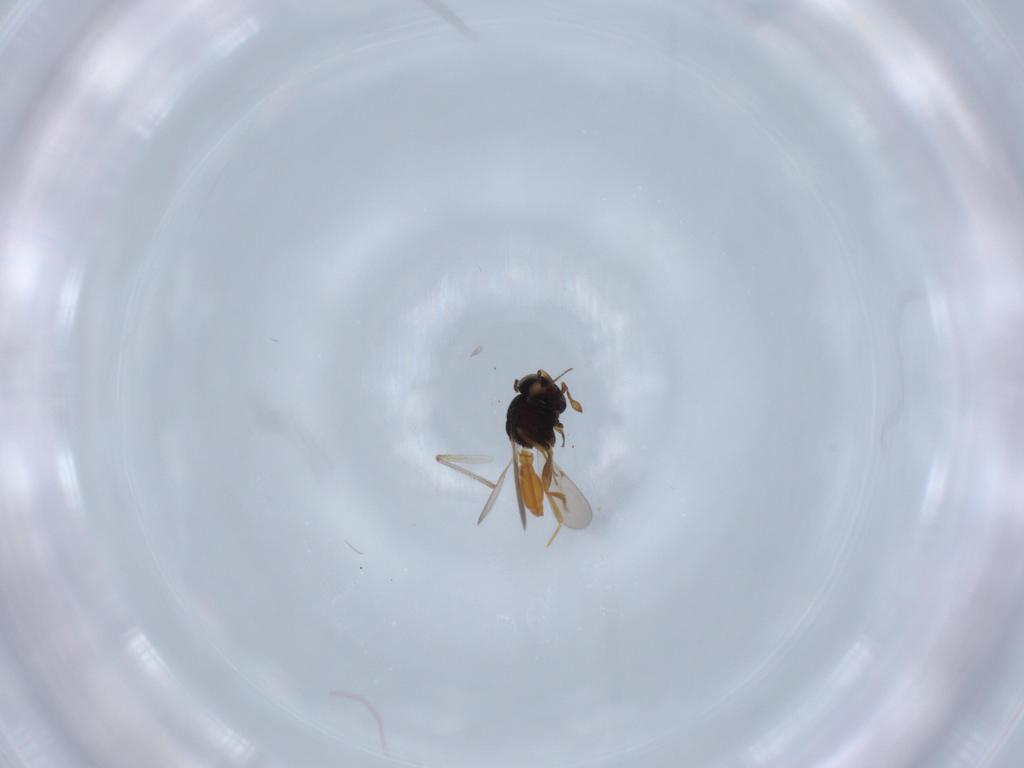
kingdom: Animalia
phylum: Arthropoda
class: Insecta
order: Hymenoptera
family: Scelionidae
